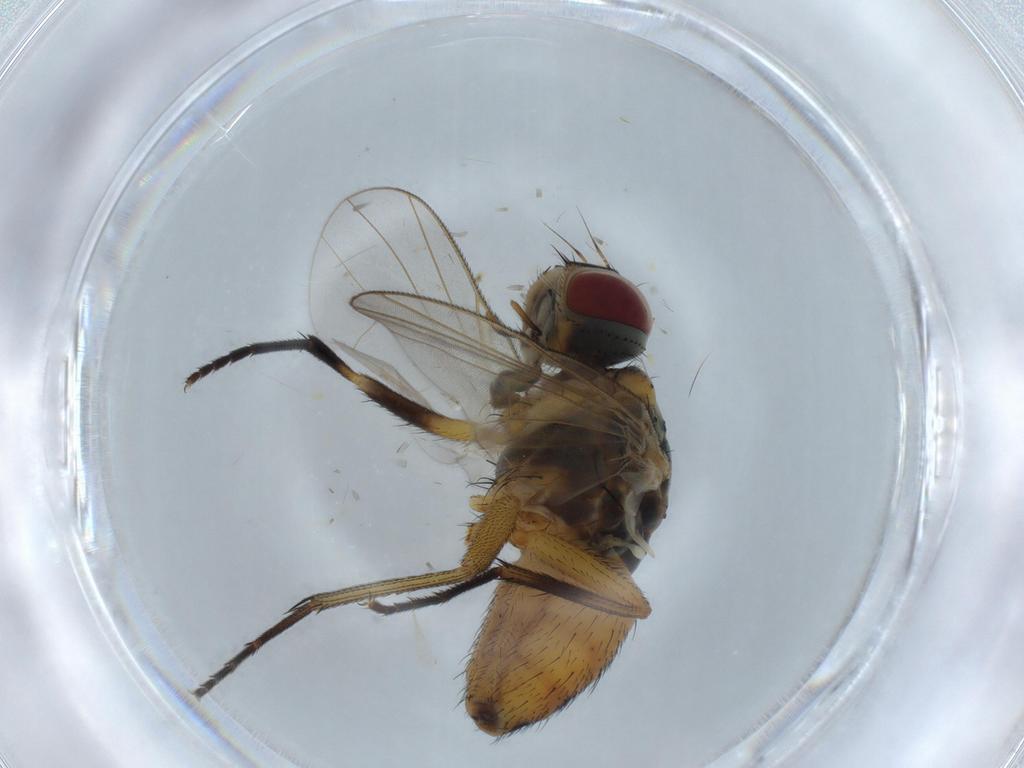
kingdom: Animalia
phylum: Arthropoda
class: Insecta
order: Diptera
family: Muscidae
